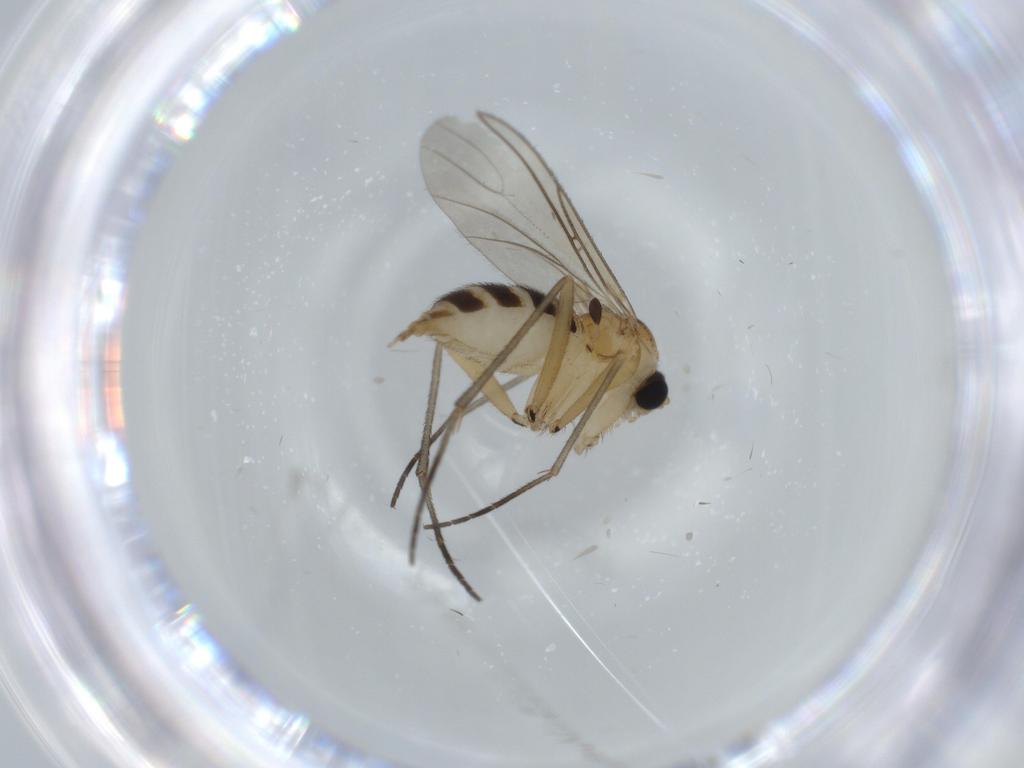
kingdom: Animalia
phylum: Arthropoda
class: Insecta
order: Diptera
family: Sciaridae
